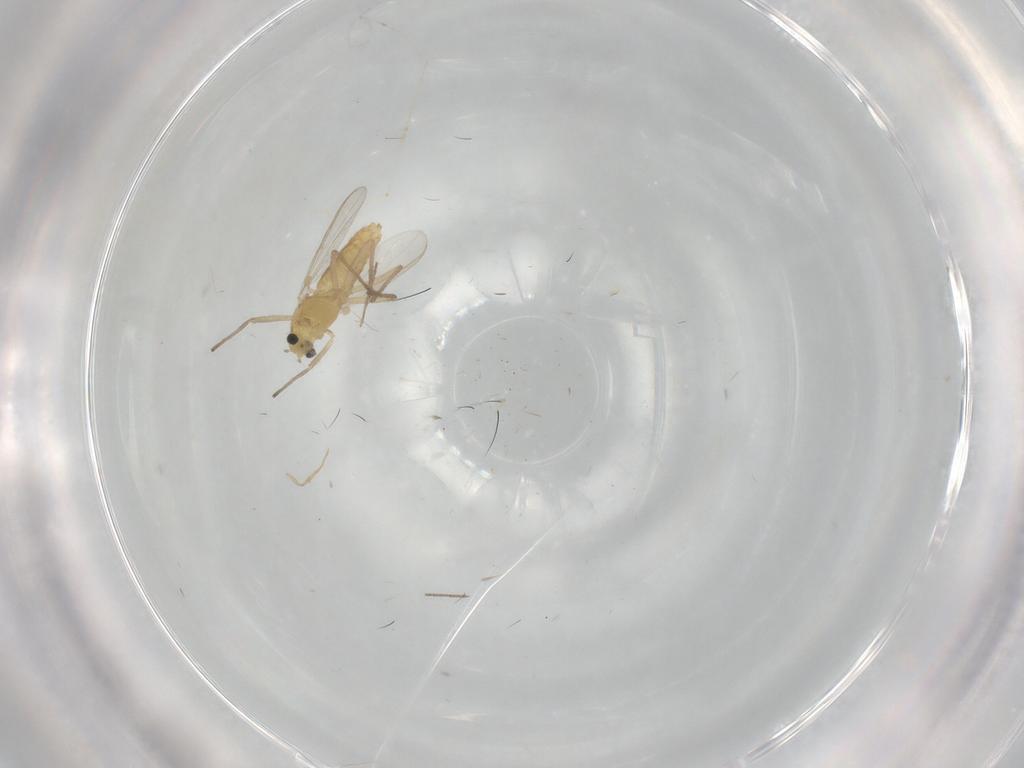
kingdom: Animalia
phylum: Arthropoda
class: Insecta
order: Diptera
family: Chironomidae
